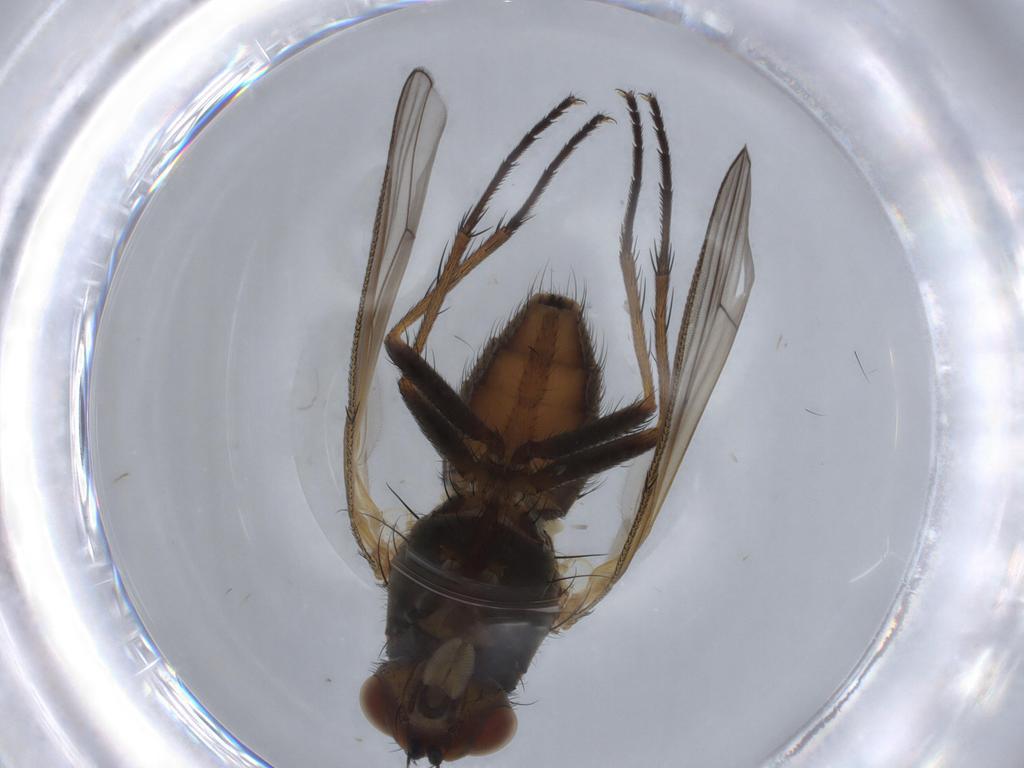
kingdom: Animalia
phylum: Arthropoda
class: Insecta
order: Diptera
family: Anthomyiidae
